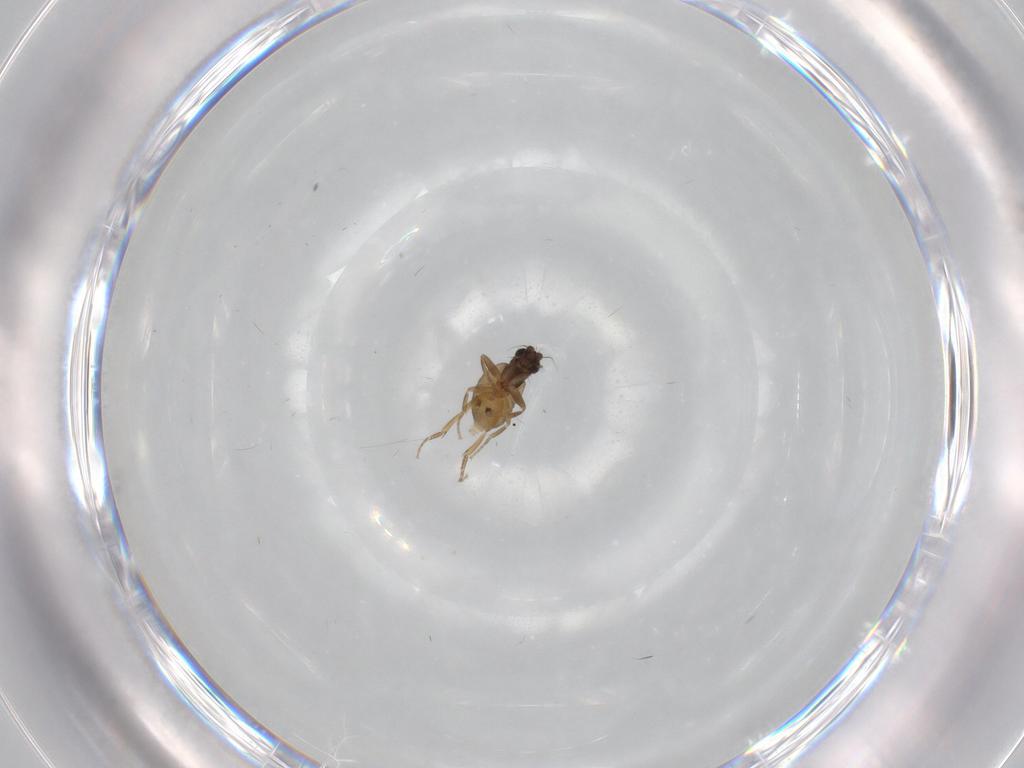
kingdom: Animalia
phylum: Arthropoda
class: Insecta
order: Diptera
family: Phoridae
